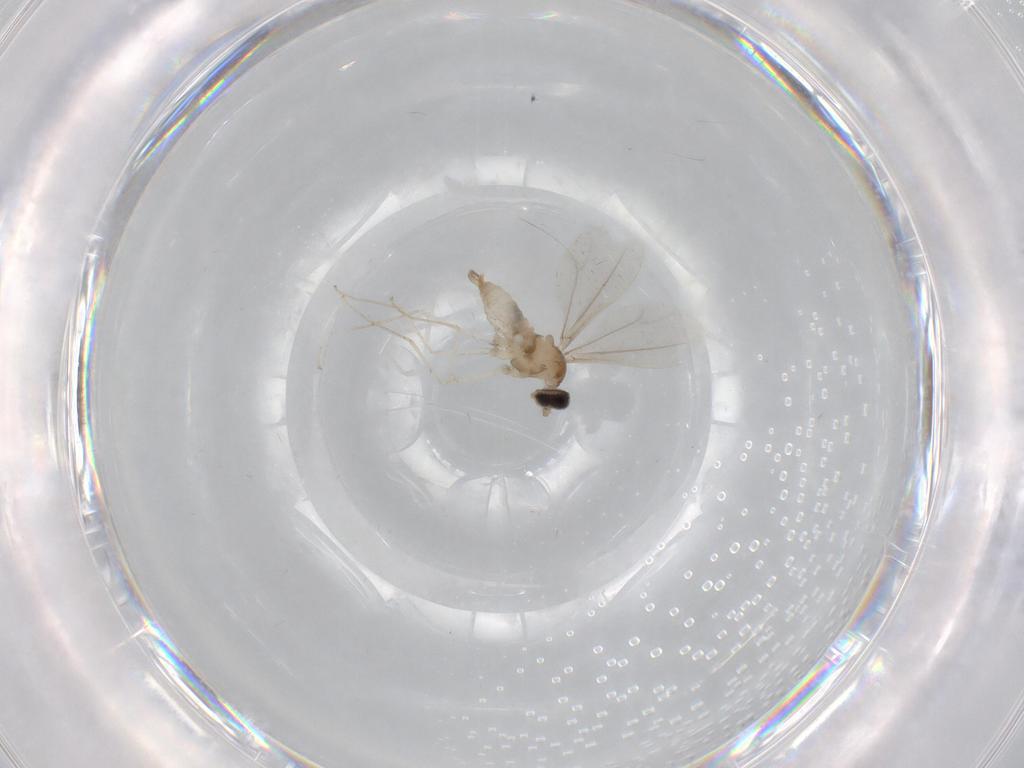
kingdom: Animalia
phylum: Arthropoda
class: Insecta
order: Diptera
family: Cecidomyiidae
